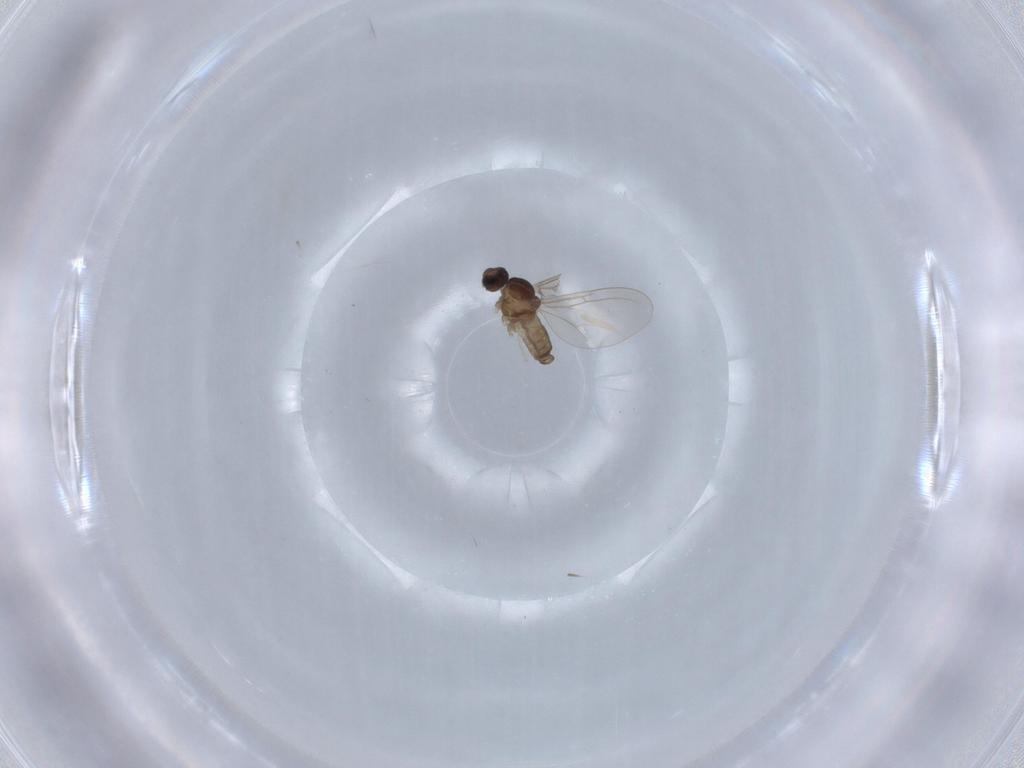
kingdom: Animalia
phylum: Arthropoda
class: Insecta
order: Diptera
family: Cecidomyiidae
